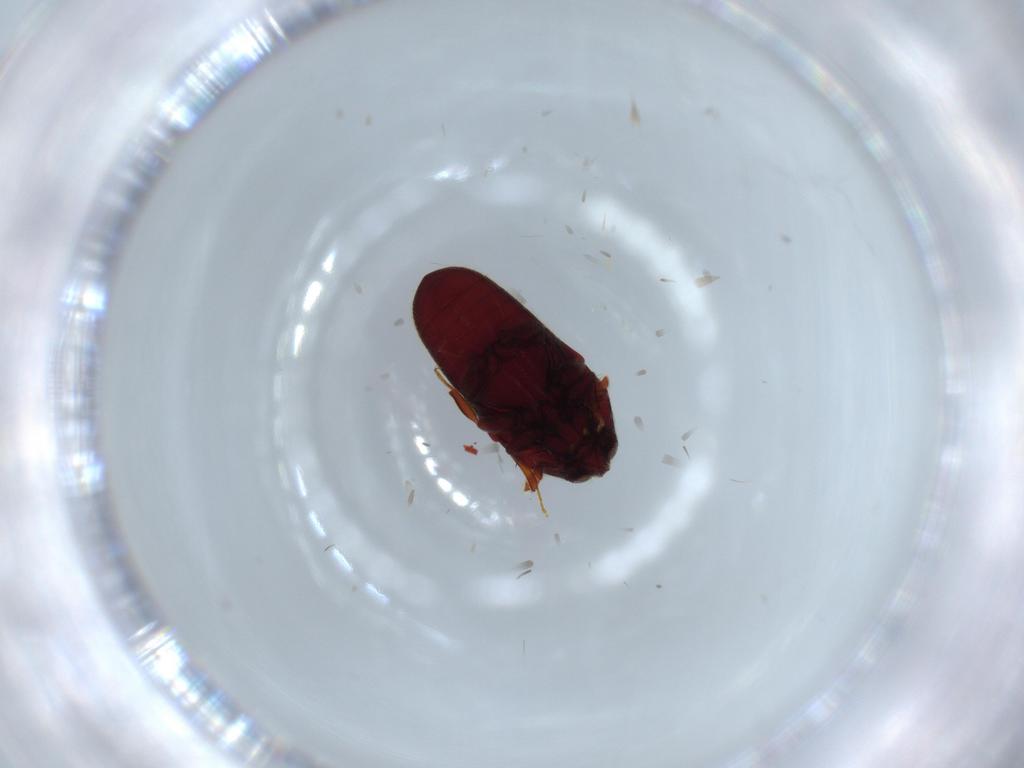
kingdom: Animalia
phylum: Arthropoda
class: Insecta
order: Coleoptera
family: Throscidae
